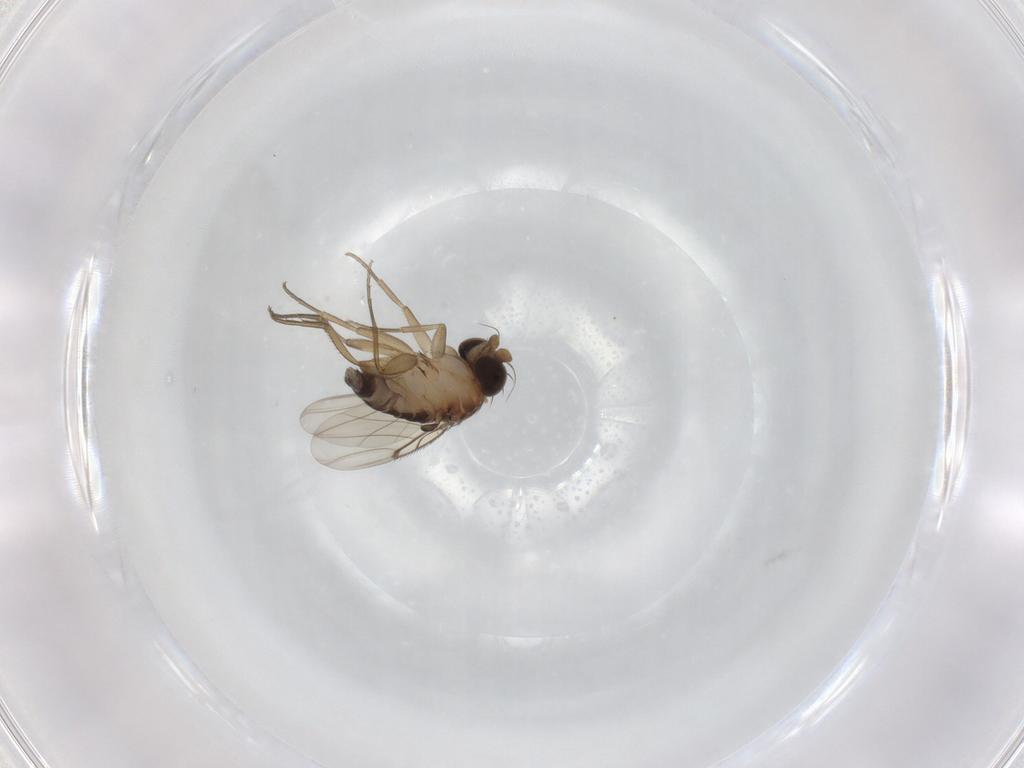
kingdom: Animalia
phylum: Arthropoda
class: Insecta
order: Diptera
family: Phoridae
